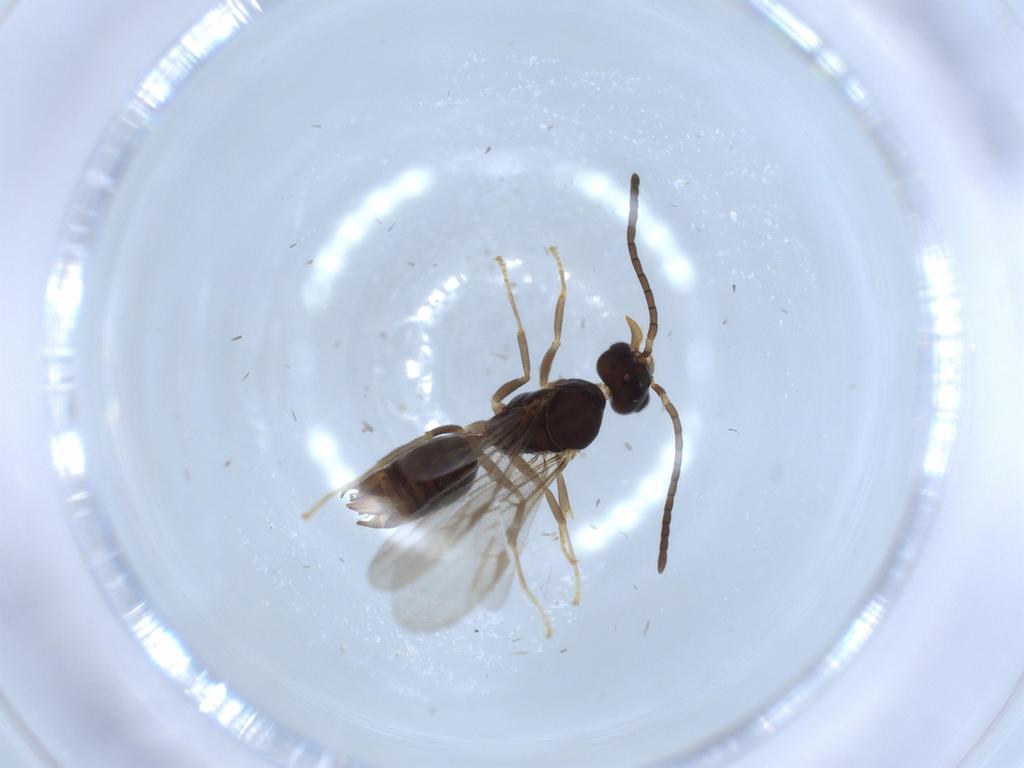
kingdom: Animalia
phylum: Arthropoda
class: Insecta
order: Hymenoptera
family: Formicidae
